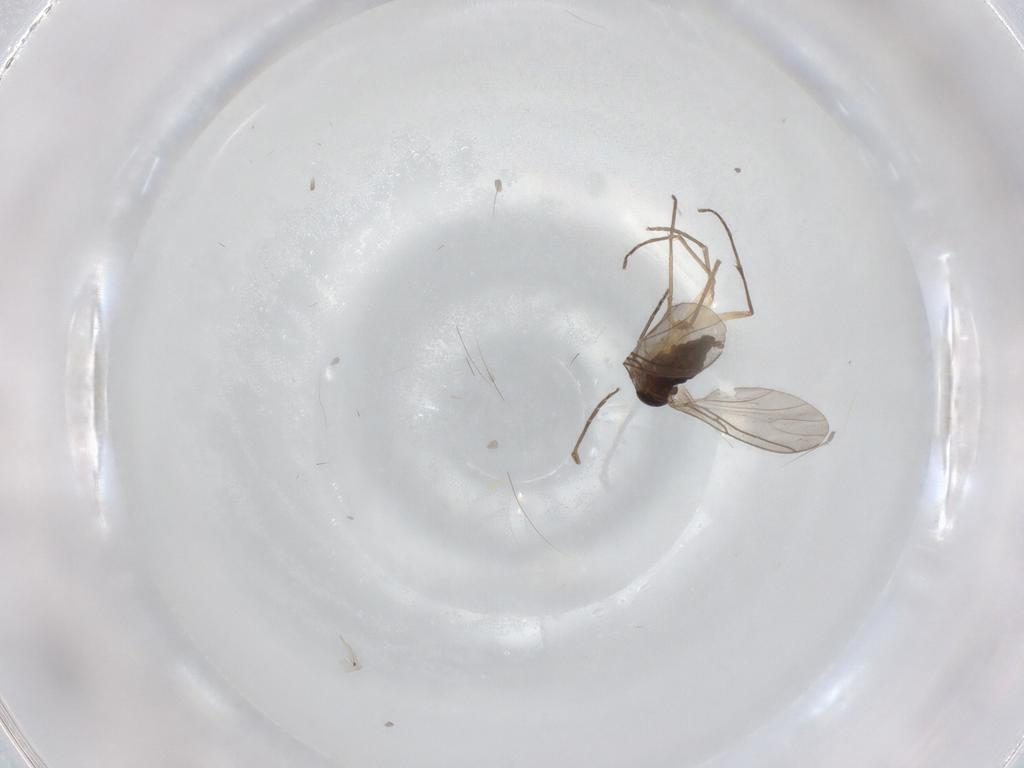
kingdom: Animalia
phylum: Arthropoda
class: Insecta
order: Diptera
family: Sciaridae
